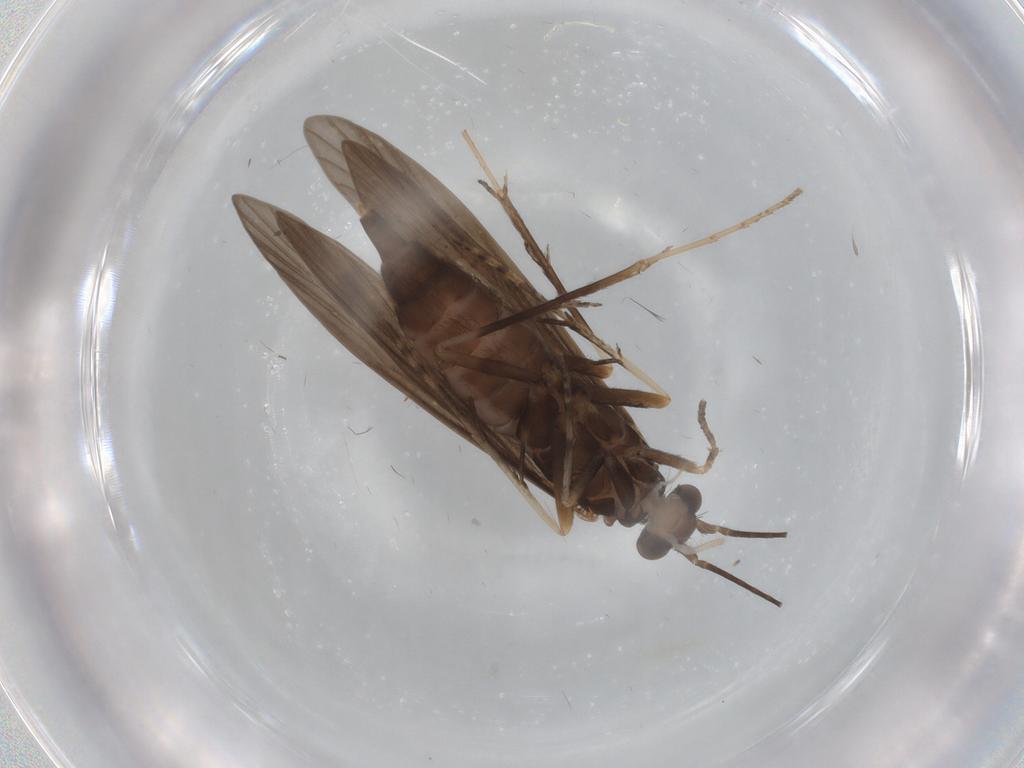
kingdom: Animalia
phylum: Arthropoda
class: Insecta
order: Trichoptera
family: Xiphocentronidae
